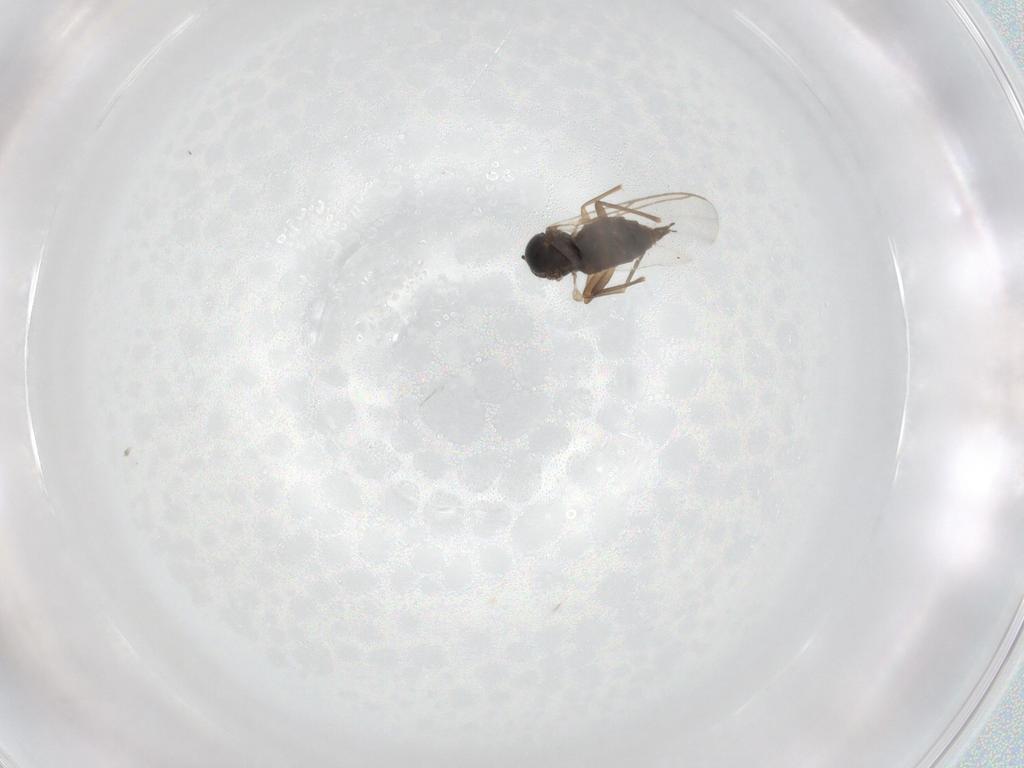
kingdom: Animalia
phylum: Arthropoda
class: Insecta
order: Diptera
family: Sciaridae
